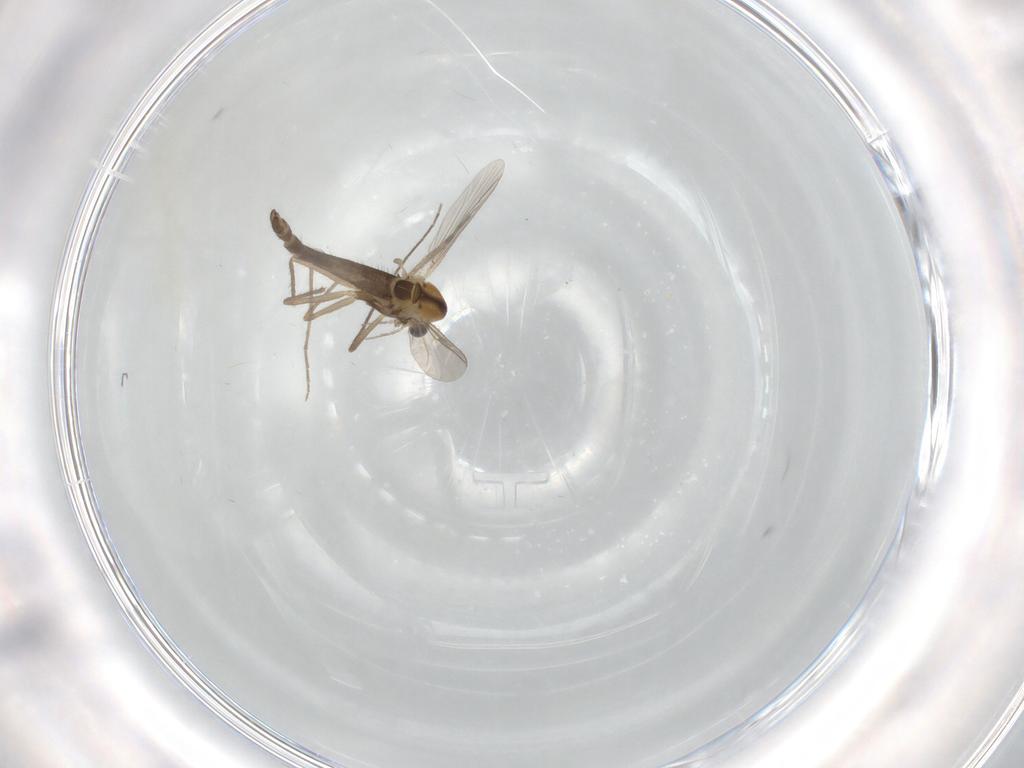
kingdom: Animalia
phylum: Arthropoda
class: Insecta
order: Diptera
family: Chironomidae
